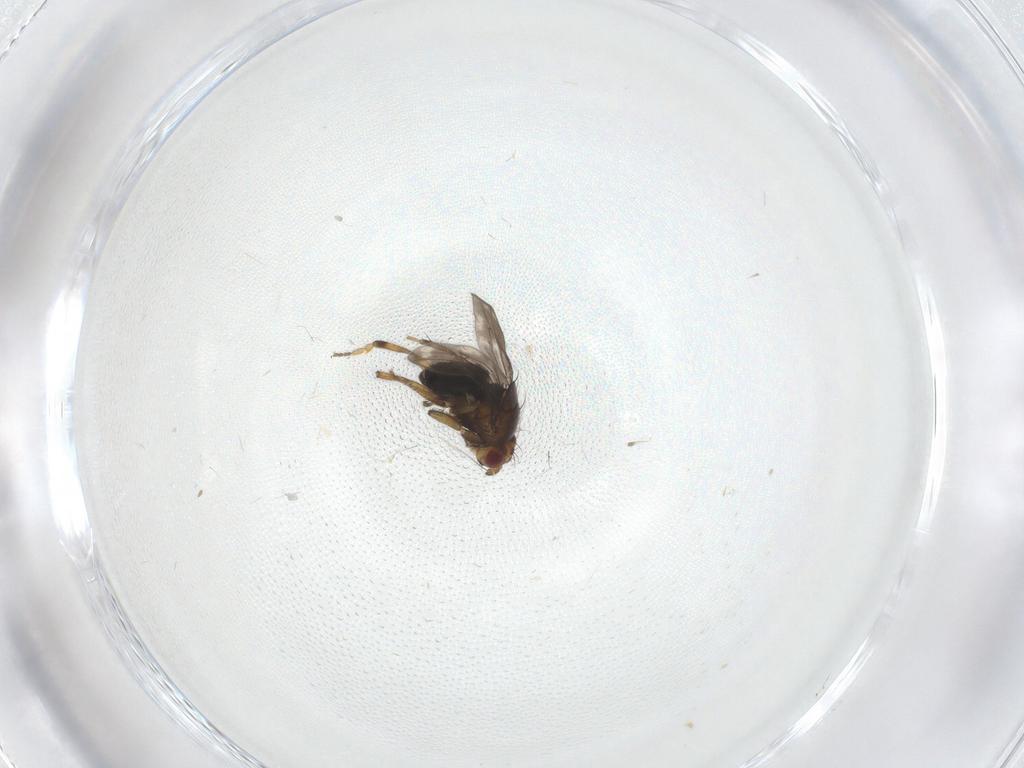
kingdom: Animalia
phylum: Arthropoda
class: Insecta
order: Diptera
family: Sphaeroceridae
